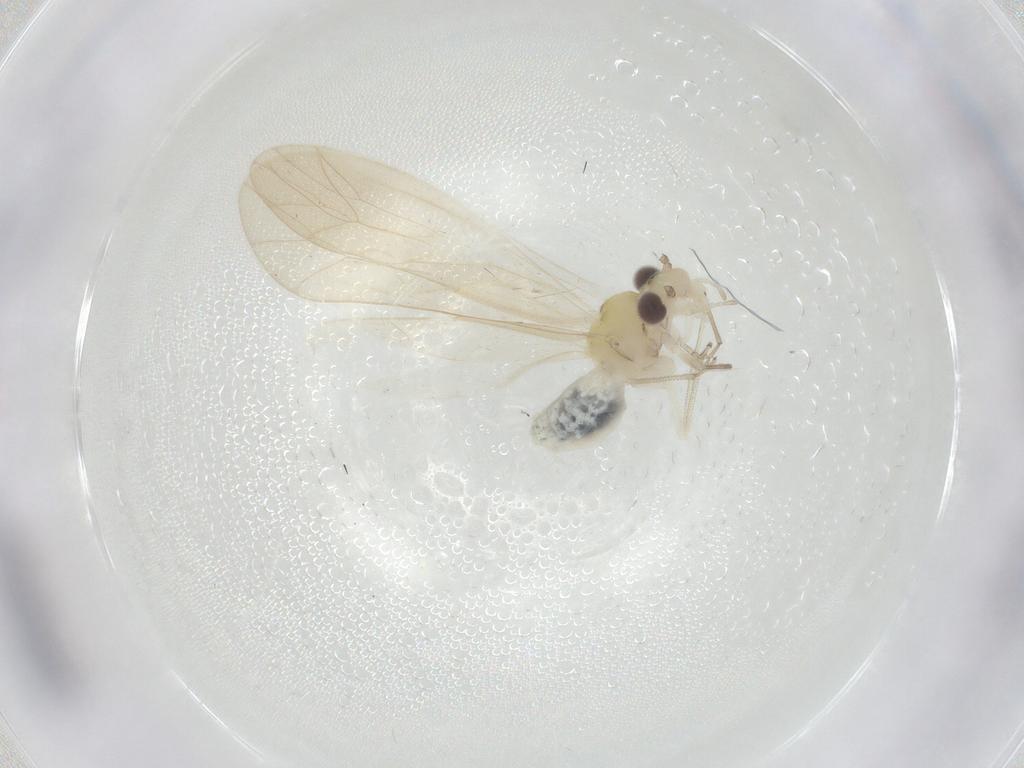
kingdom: Animalia
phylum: Arthropoda
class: Insecta
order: Psocodea
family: Caeciliusidae
